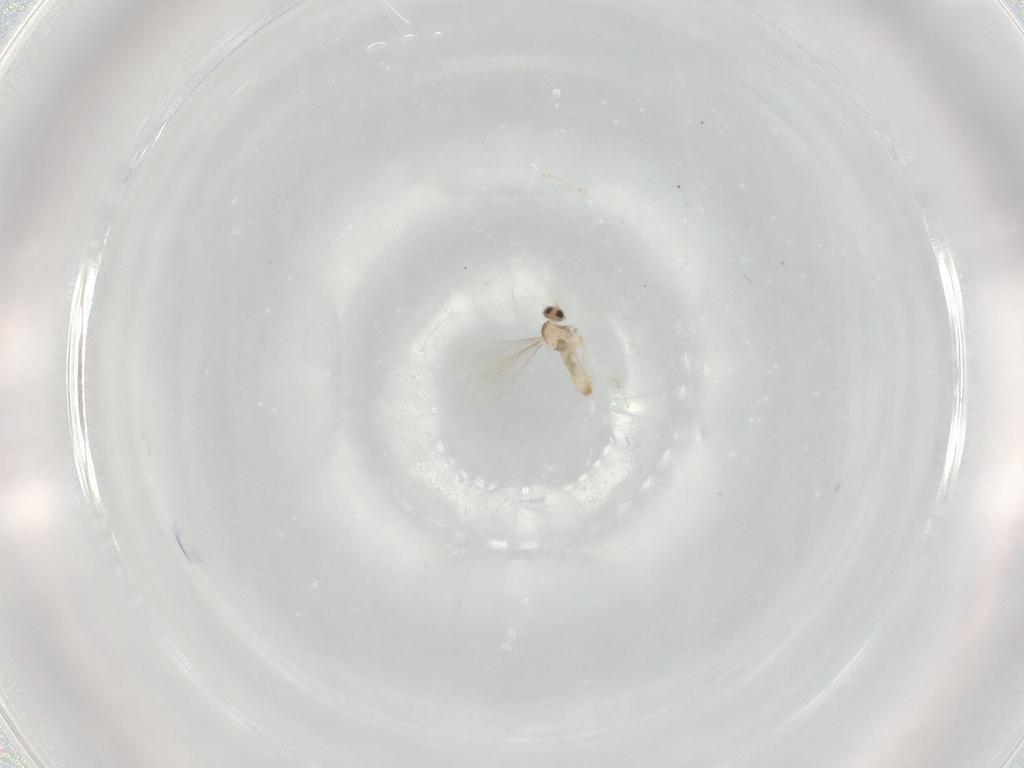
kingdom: Animalia
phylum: Arthropoda
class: Insecta
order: Diptera
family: Cecidomyiidae
